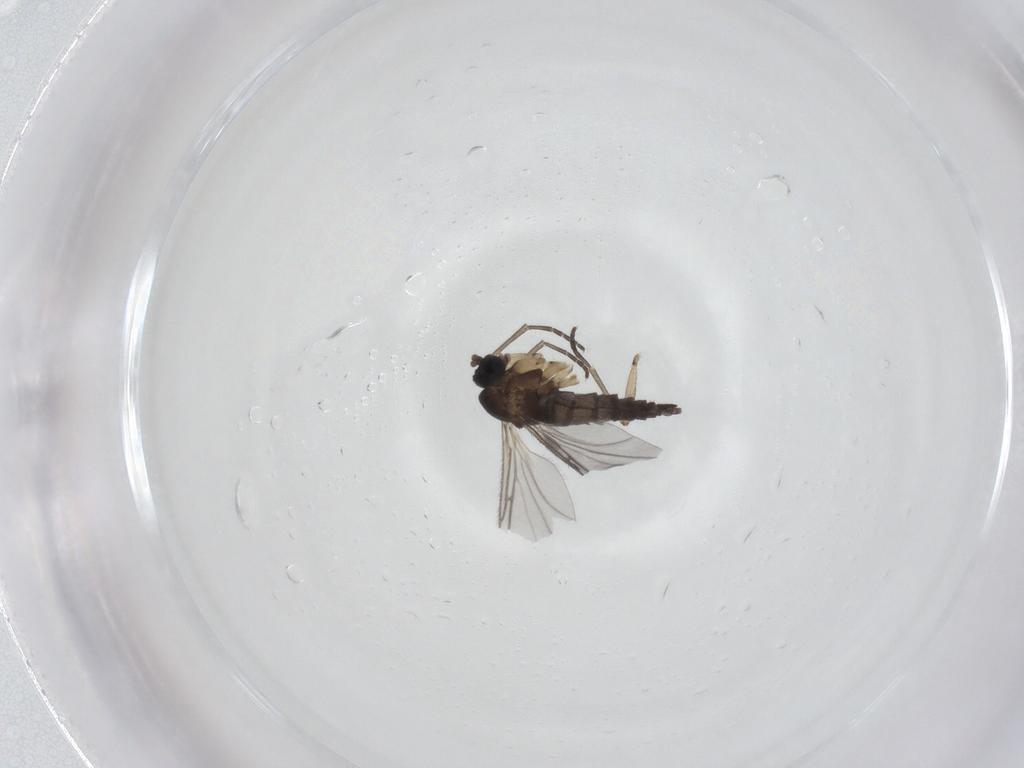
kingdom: Animalia
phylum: Arthropoda
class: Insecta
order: Diptera
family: Sciaridae
